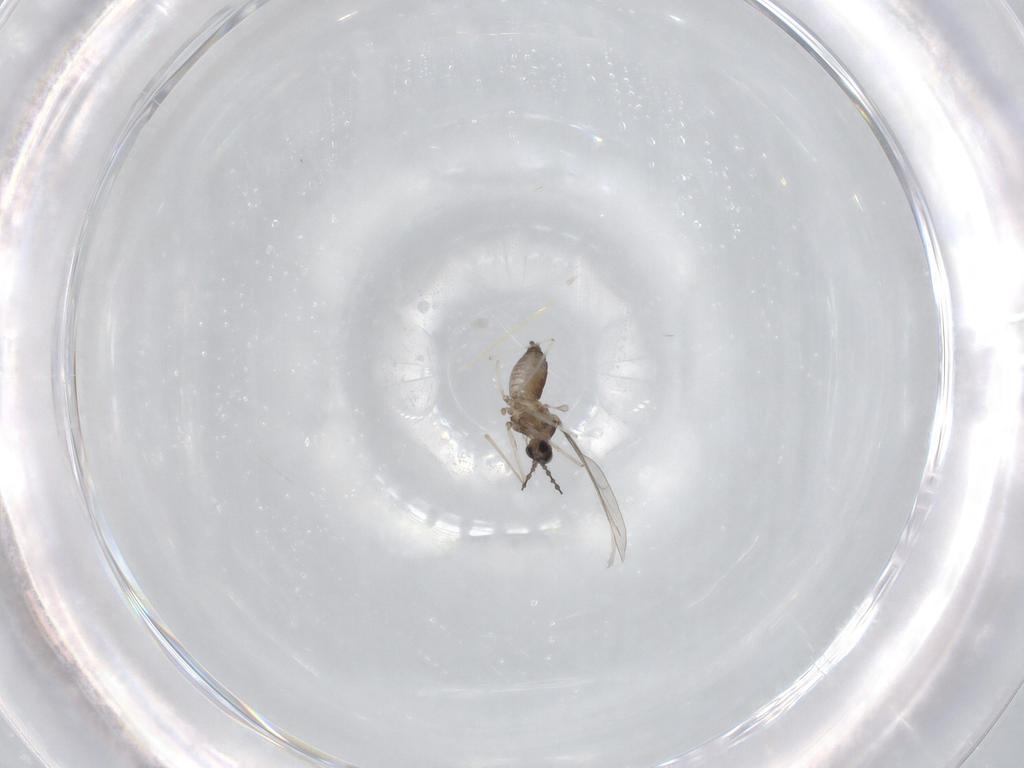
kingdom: Animalia
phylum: Arthropoda
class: Insecta
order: Diptera
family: Cecidomyiidae
